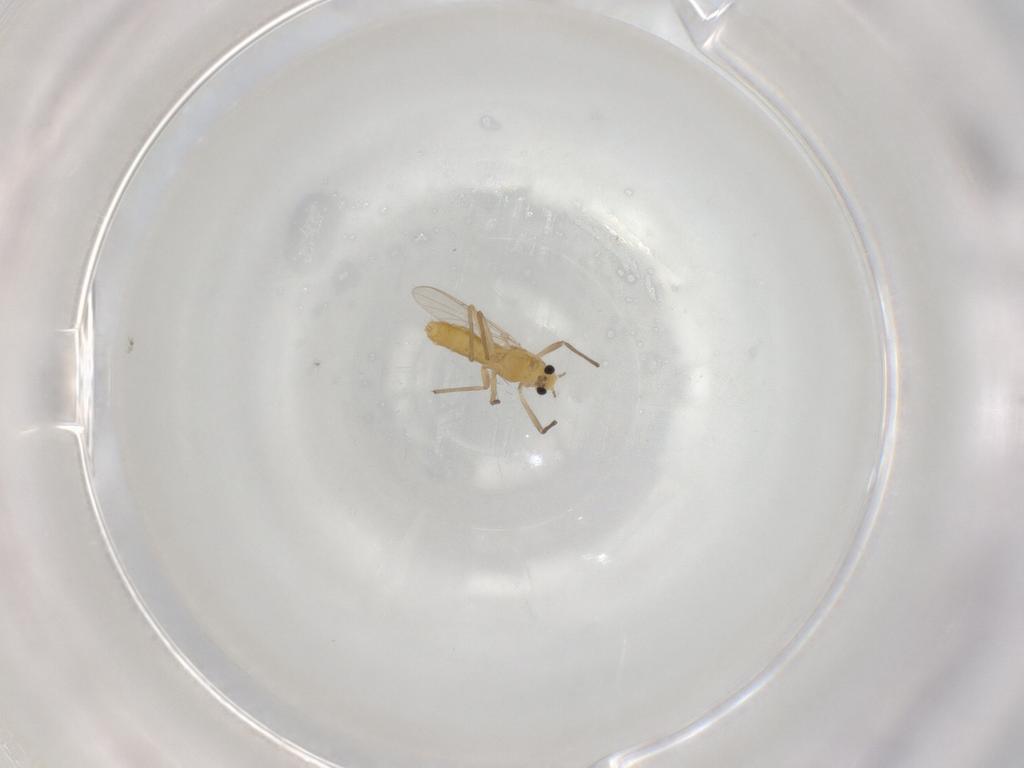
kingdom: Animalia
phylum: Arthropoda
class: Insecta
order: Diptera
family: Chironomidae
